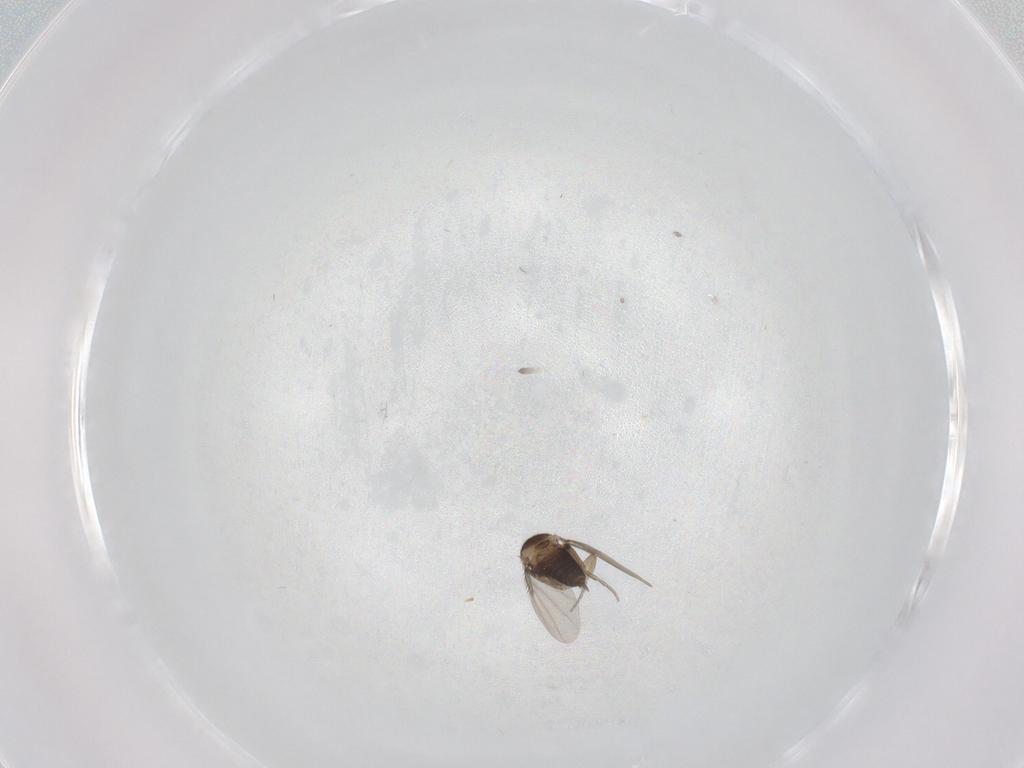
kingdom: Animalia
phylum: Arthropoda
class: Insecta
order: Diptera
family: Phoridae
